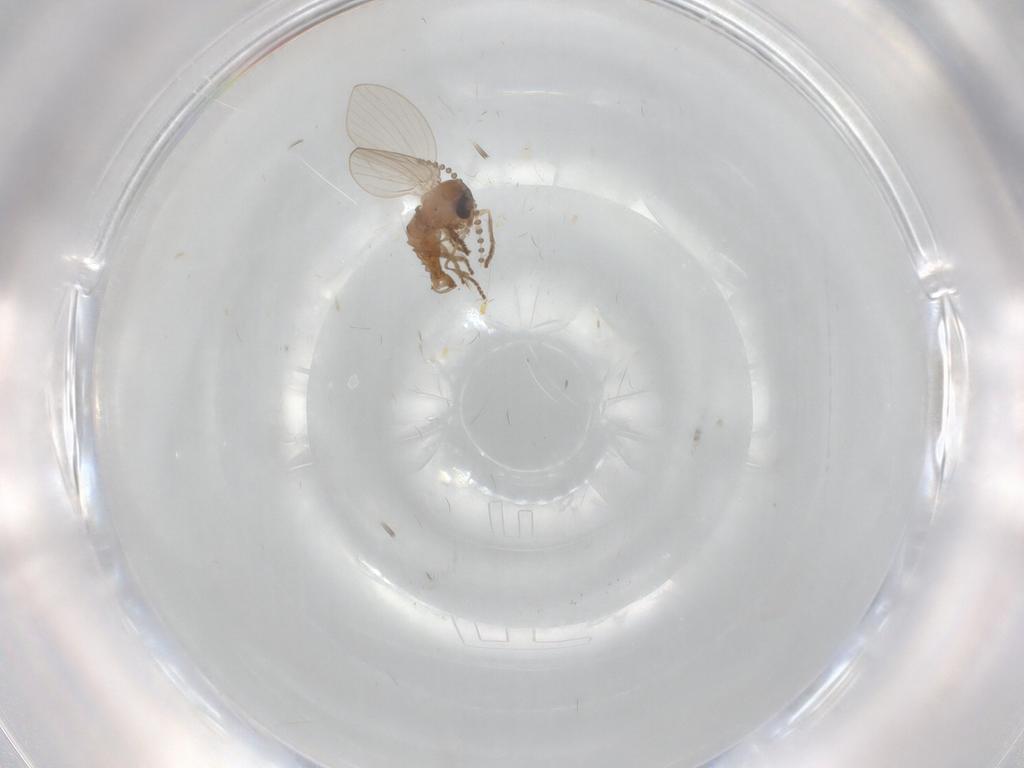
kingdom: Animalia
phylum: Arthropoda
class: Insecta
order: Diptera
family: Psychodidae
